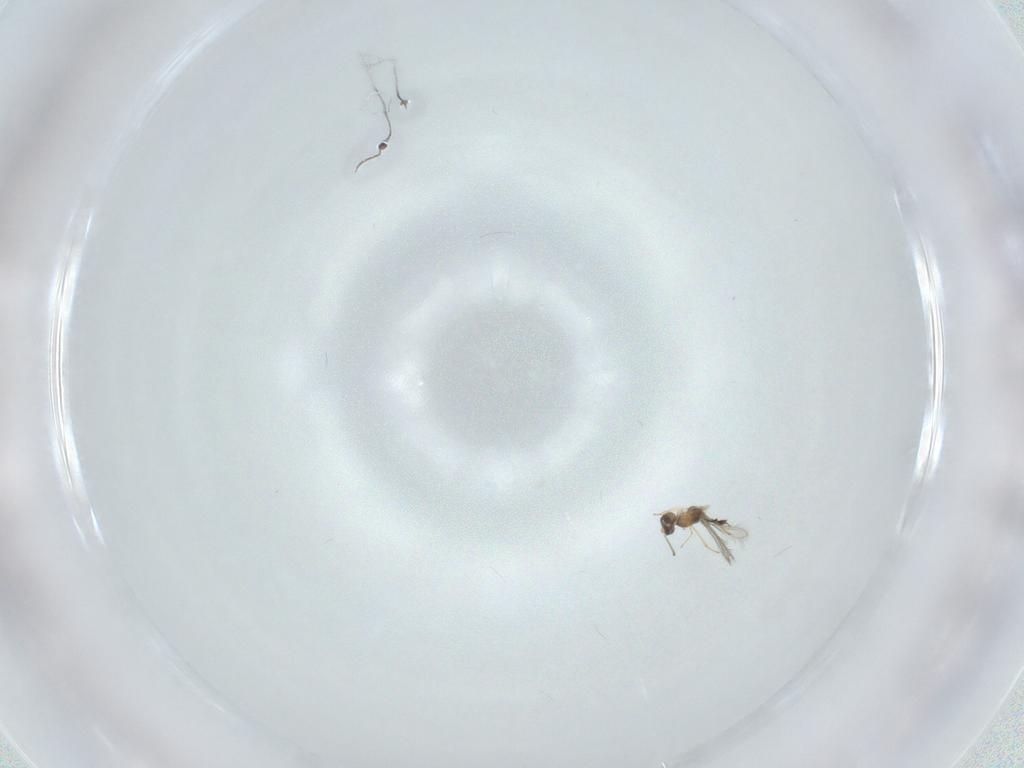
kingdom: Animalia
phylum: Arthropoda
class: Insecta
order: Hymenoptera
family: Mymaridae
